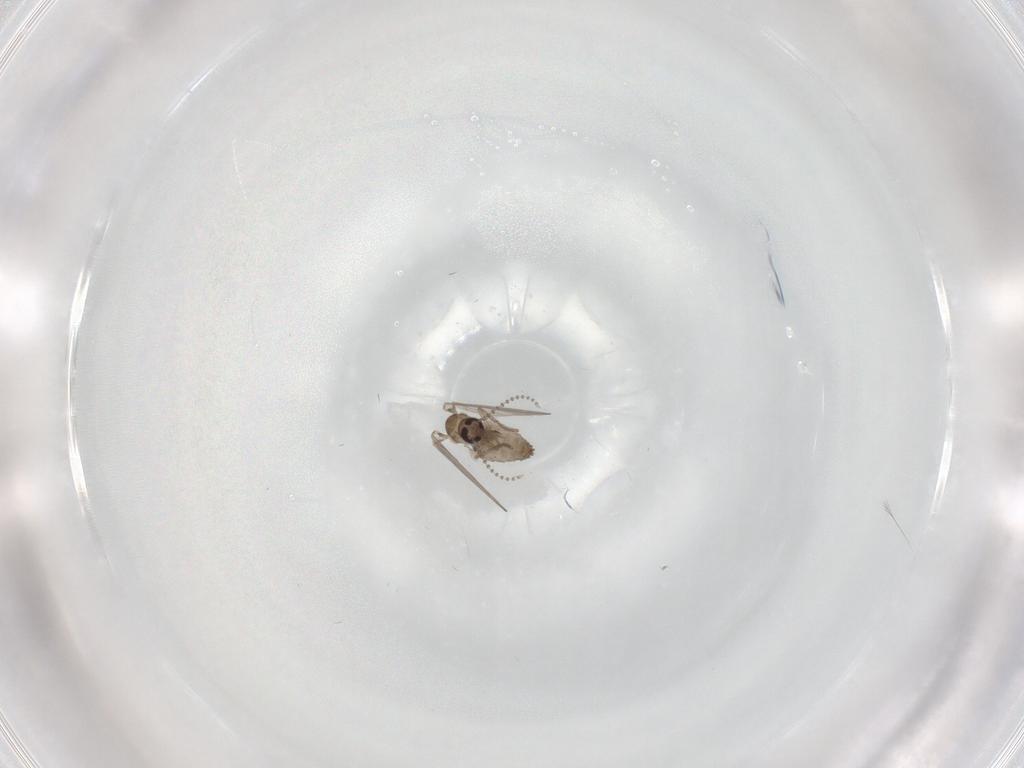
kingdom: Animalia
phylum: Arthropoda
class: Insecta
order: Diptera
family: Psychodidae
